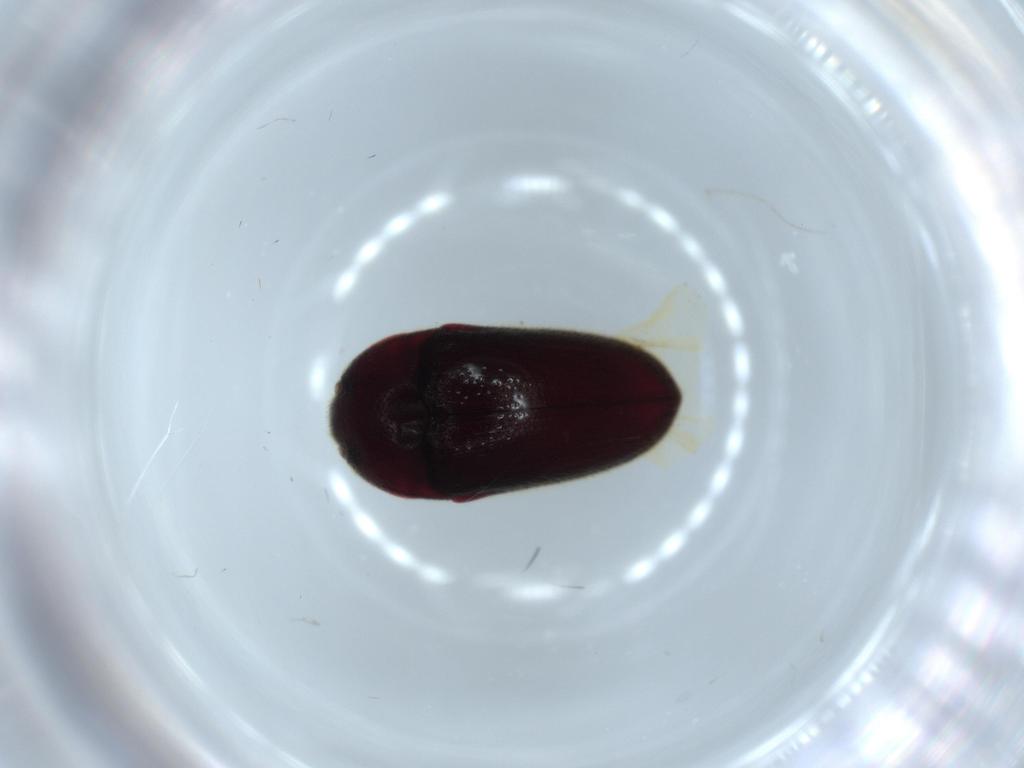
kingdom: Animalia
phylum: Arthropoda
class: Insecta
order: Coleoptera
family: Throscidae
